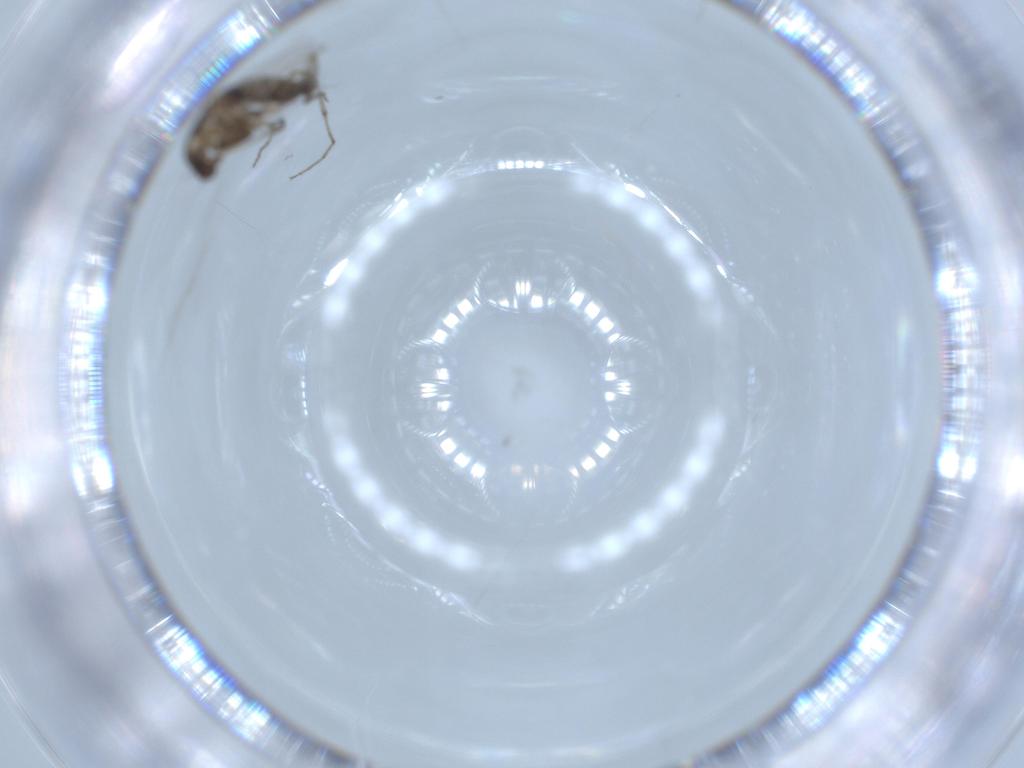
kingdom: Animalia
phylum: Arthropoda
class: Insecta
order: Diptera
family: Chironomidae
